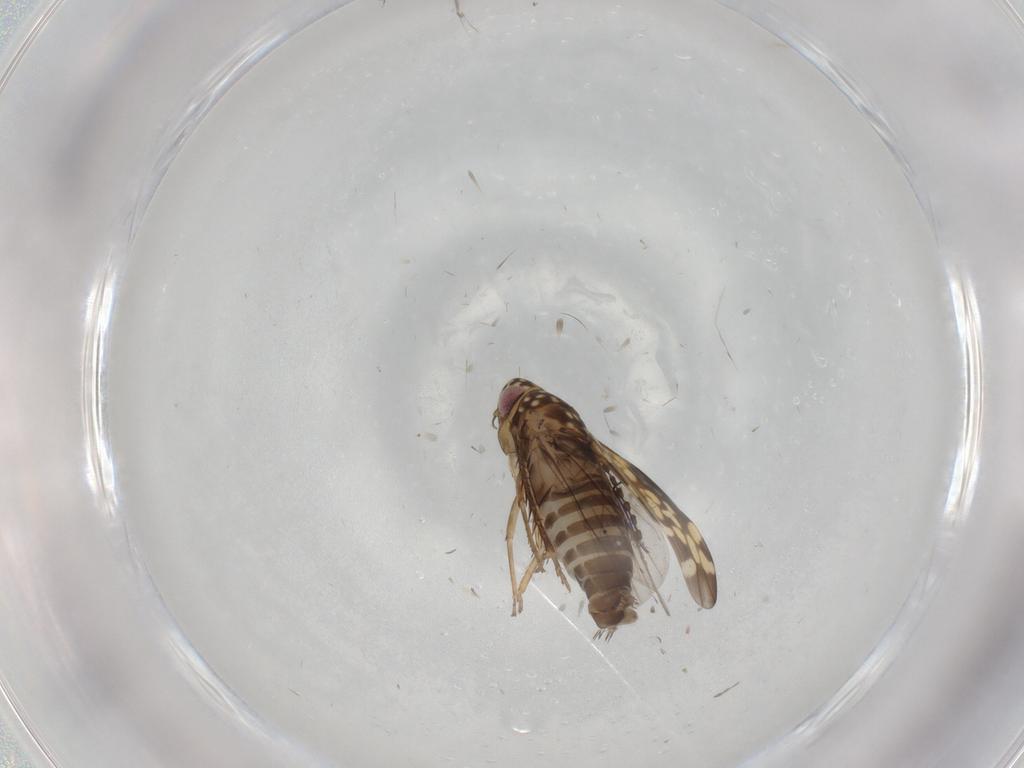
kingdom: Animalia
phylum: Arthropoda
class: Insecta
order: Hemiptera
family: Cicadellidae
